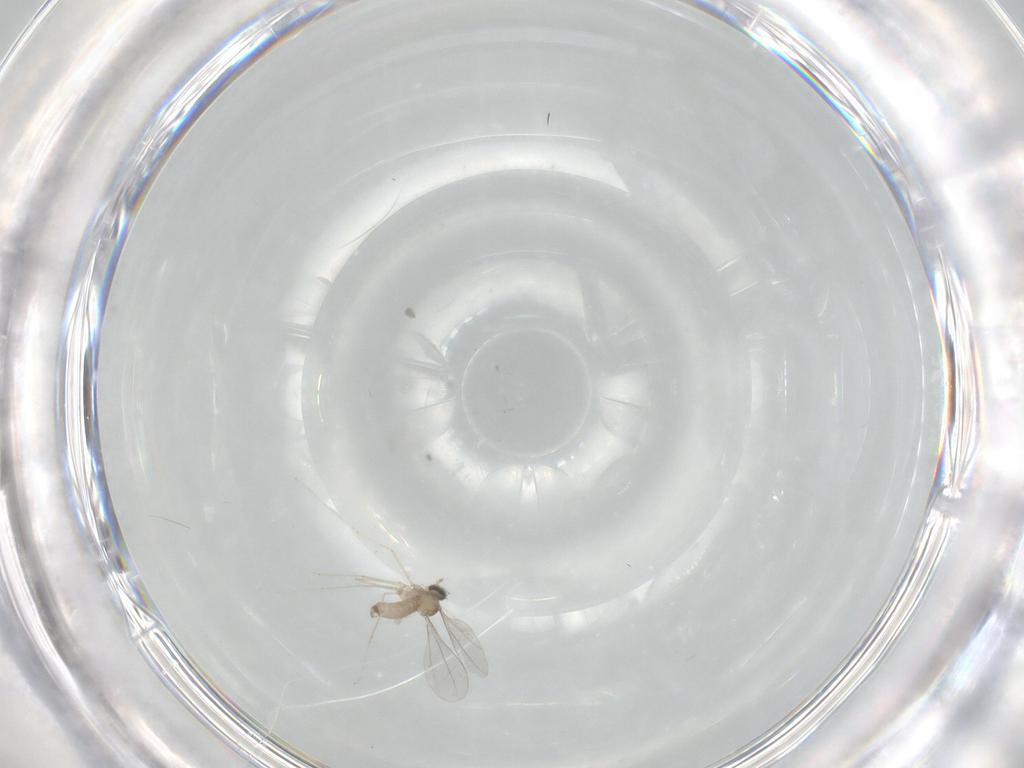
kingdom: Animalia
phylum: Arthropoda
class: Insecta
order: Diptera
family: Cecidomyiidae
